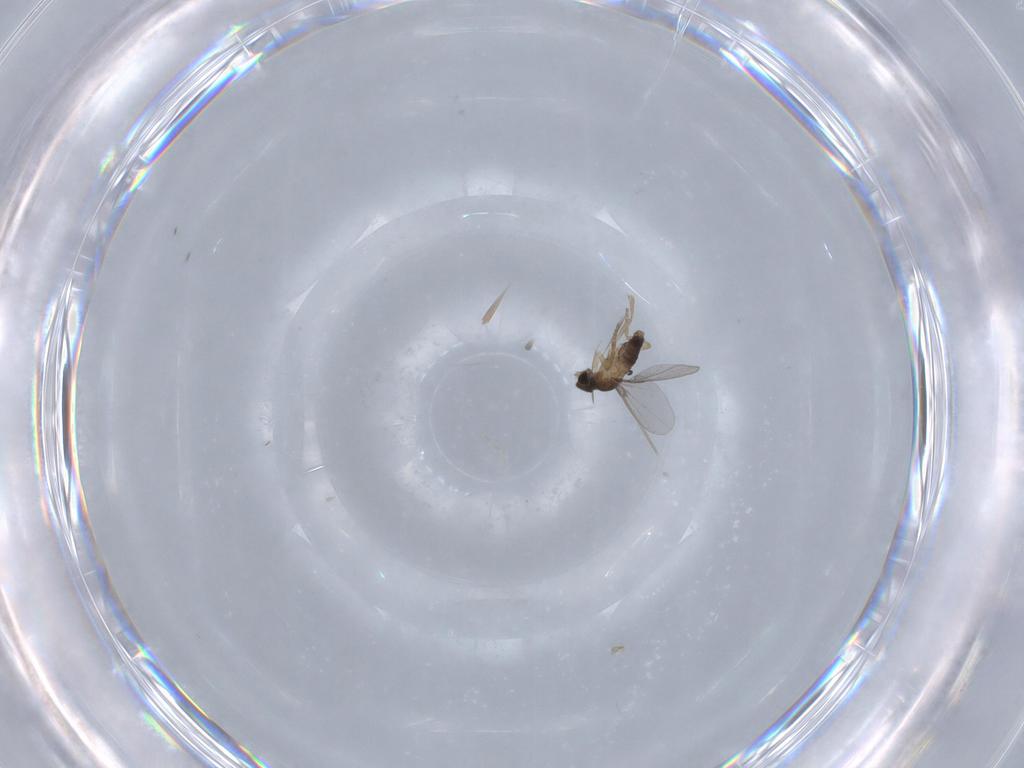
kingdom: Animalia
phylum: Arthropoda
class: Insecta
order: Diptera
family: Phoridae
